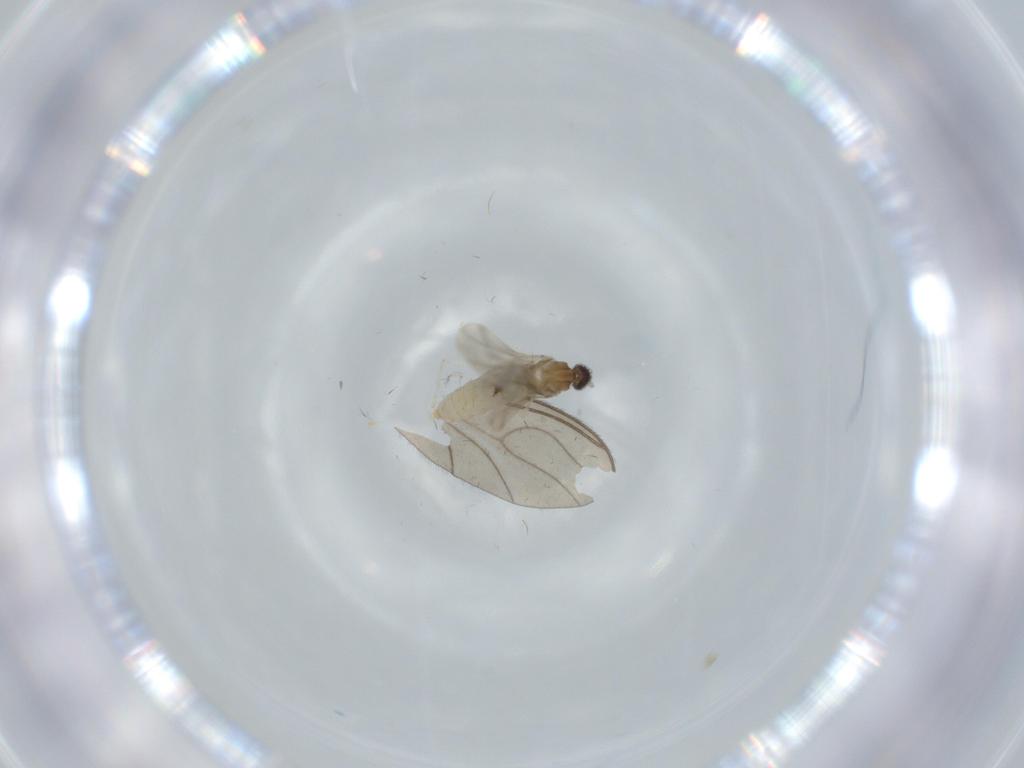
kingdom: Animalia
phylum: Arthropoda
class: Insecta
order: Diptera
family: Sciaridae
